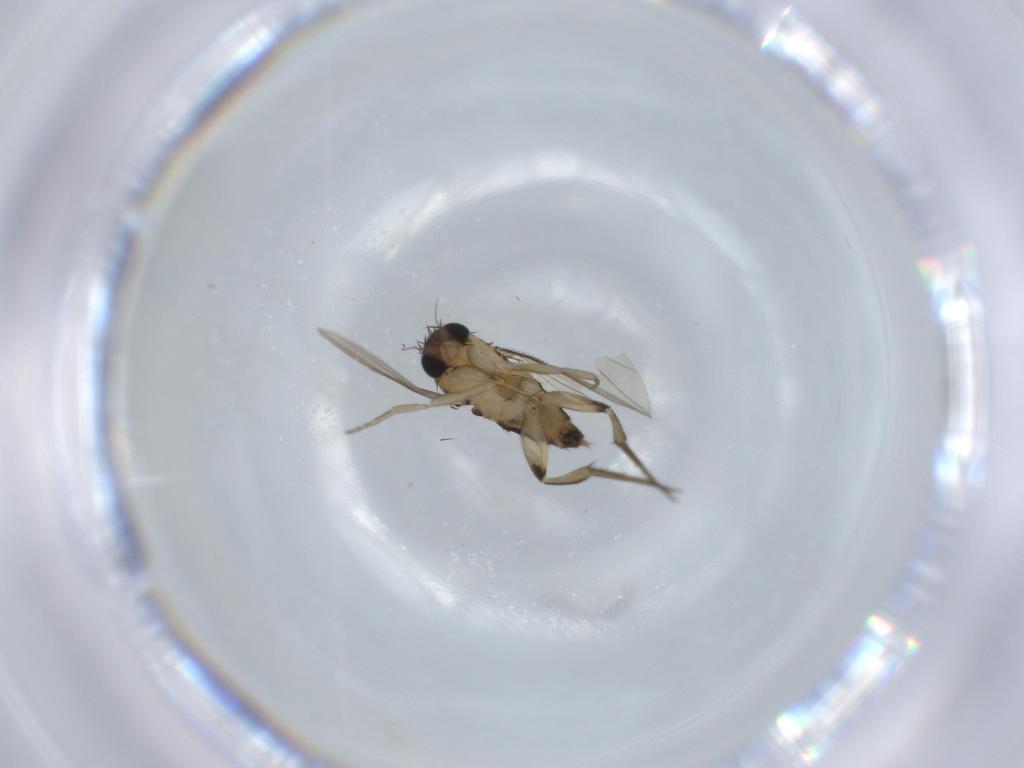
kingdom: Animalia
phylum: Arthropoda
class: Insecta
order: Diptera
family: Phoridae
